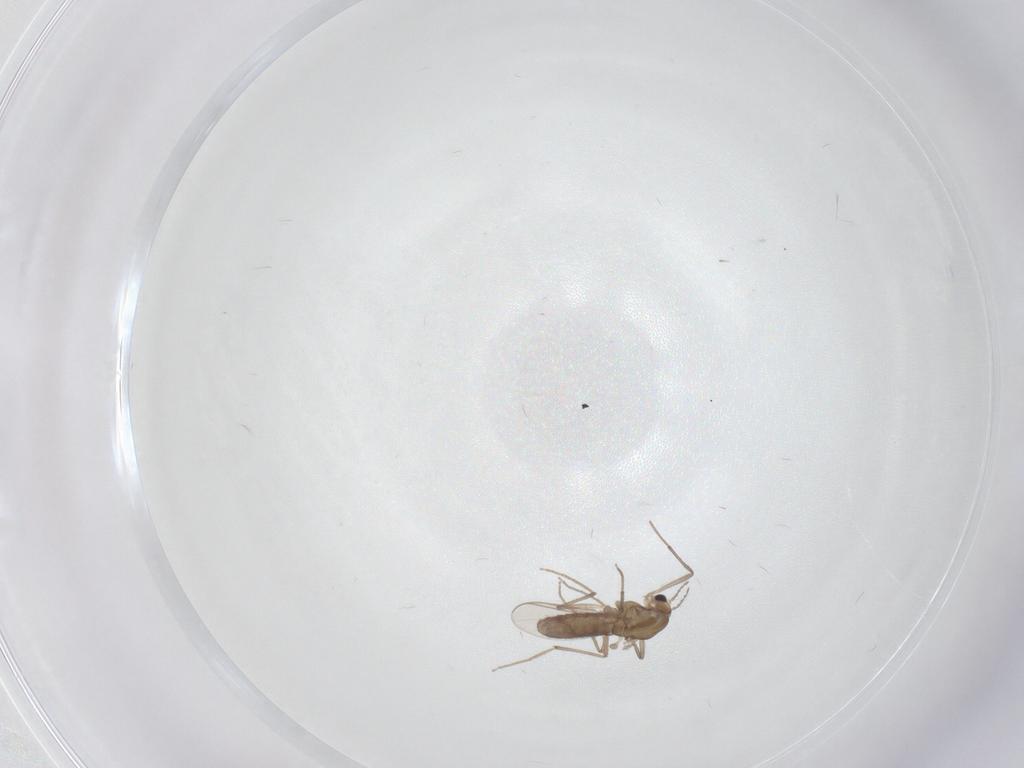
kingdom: Animalia
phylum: Arthropoda
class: Insecta
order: Diptera
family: Chironomidae
